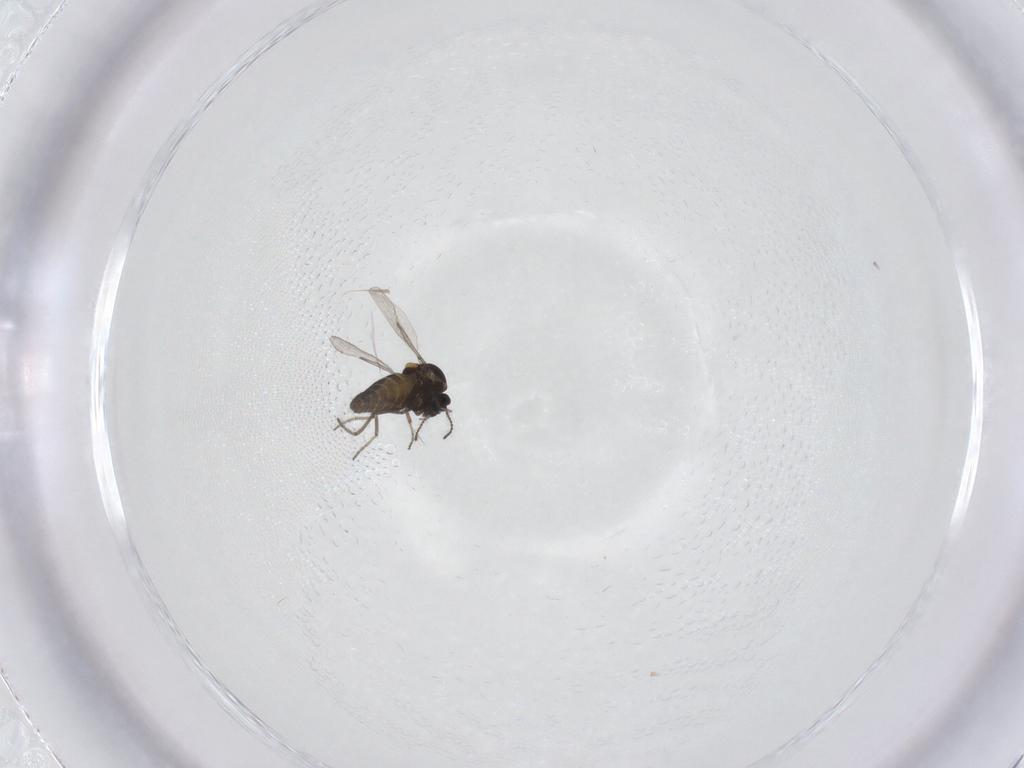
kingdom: Animalia
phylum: Arthropoda
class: Insecta
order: Diptera
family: Ceratopogonidae
